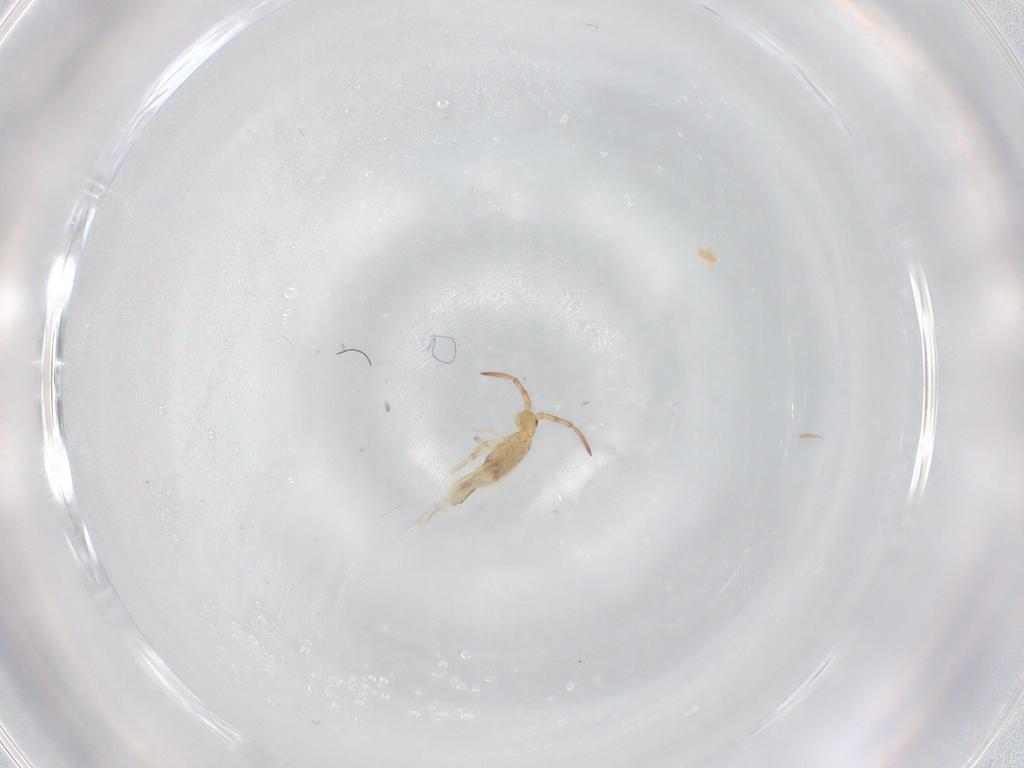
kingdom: Animalia
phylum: Arthropoda
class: Collembola
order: Entomobryomorpha
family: Entomobryidae
